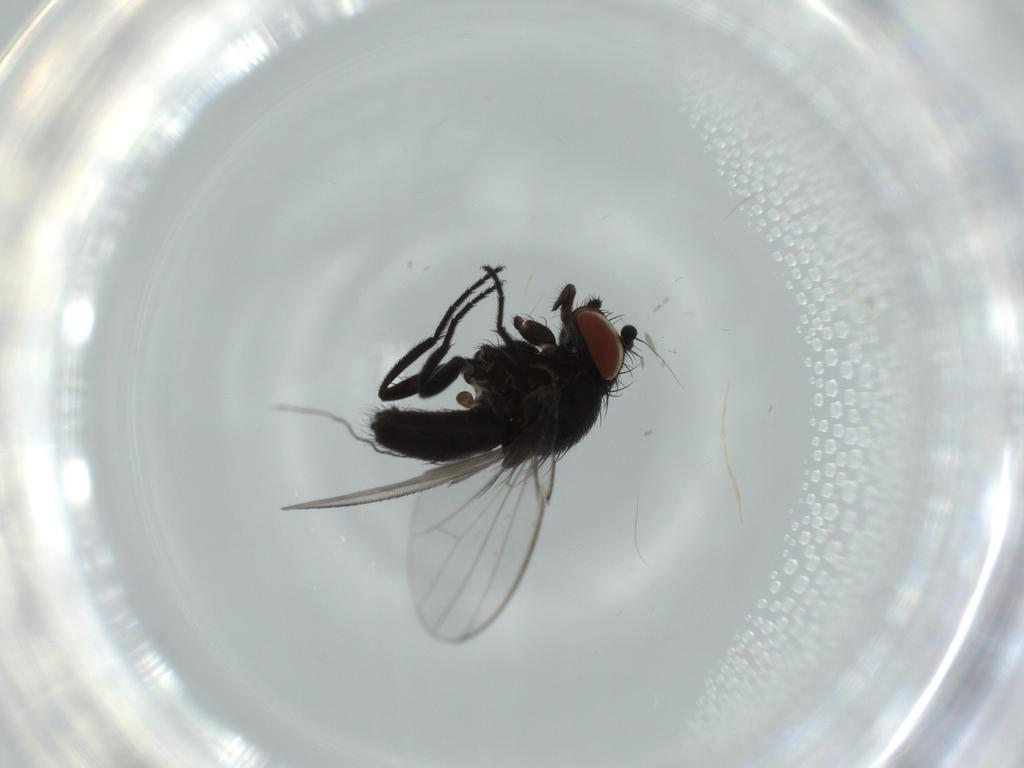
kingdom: Animalia
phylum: Arthropoda
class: Insecta
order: Diptera
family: Milichiidae
